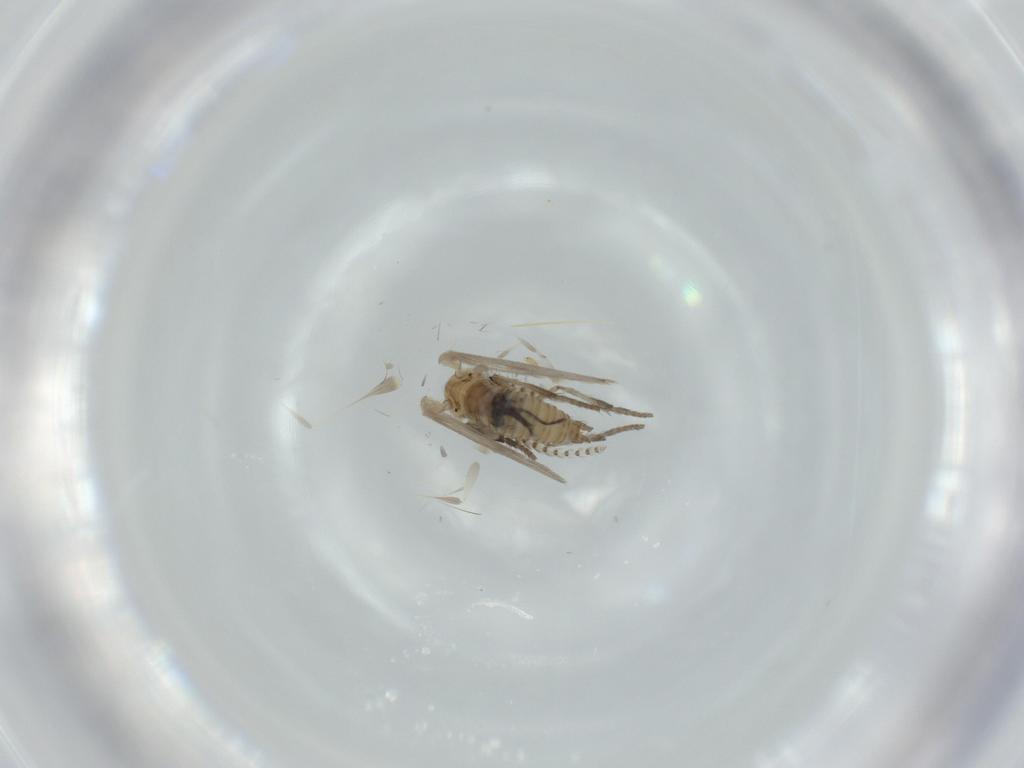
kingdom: Animalia
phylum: Arthropoda
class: Insecta
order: Diptera
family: Psychodidae
